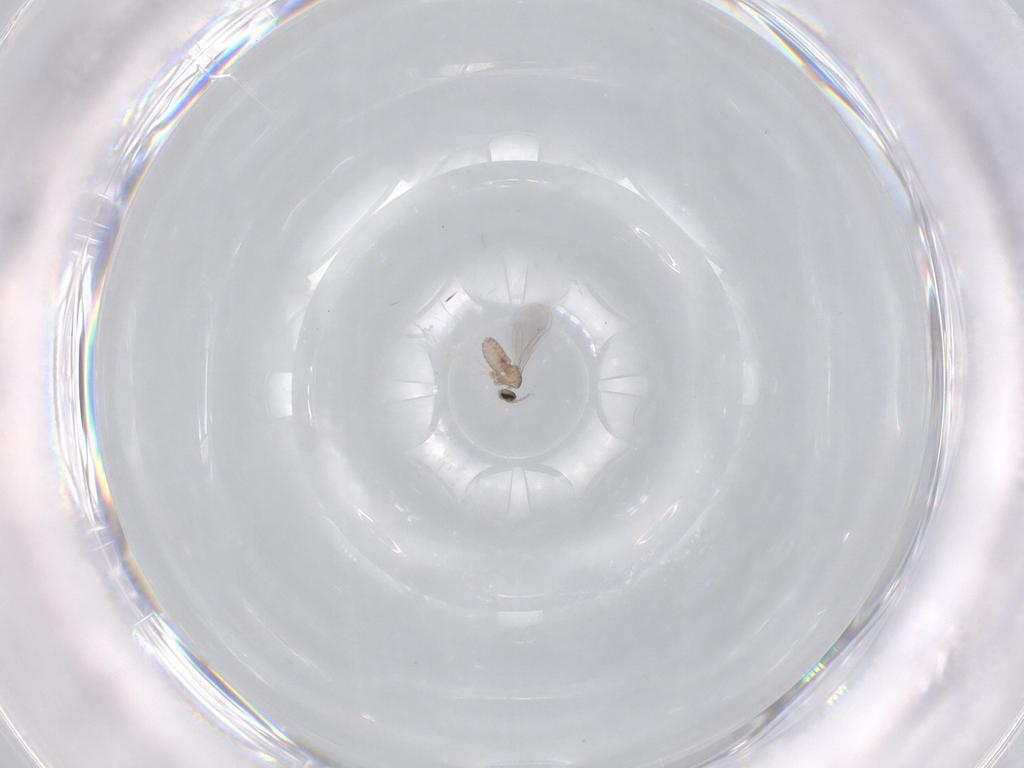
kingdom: Animalia
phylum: Arthropoda
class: Insecta
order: Diptera
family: Cecidomyiidae
